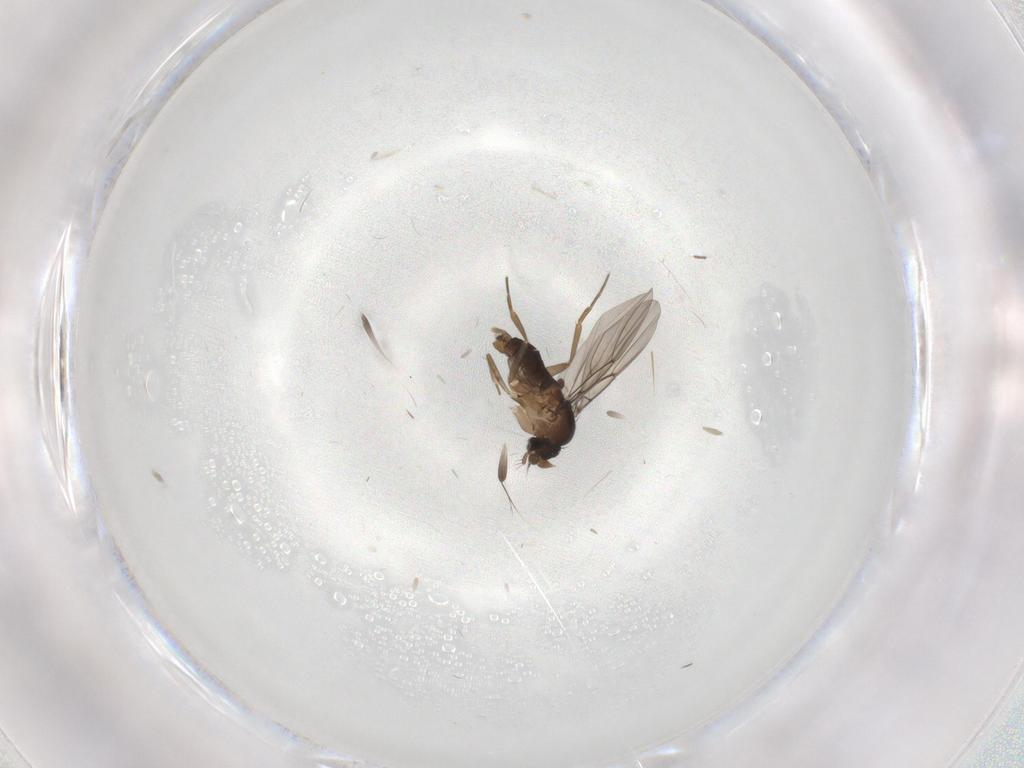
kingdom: Animalia
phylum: Arthropoda
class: Insecta
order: Diptera
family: Phoridae
